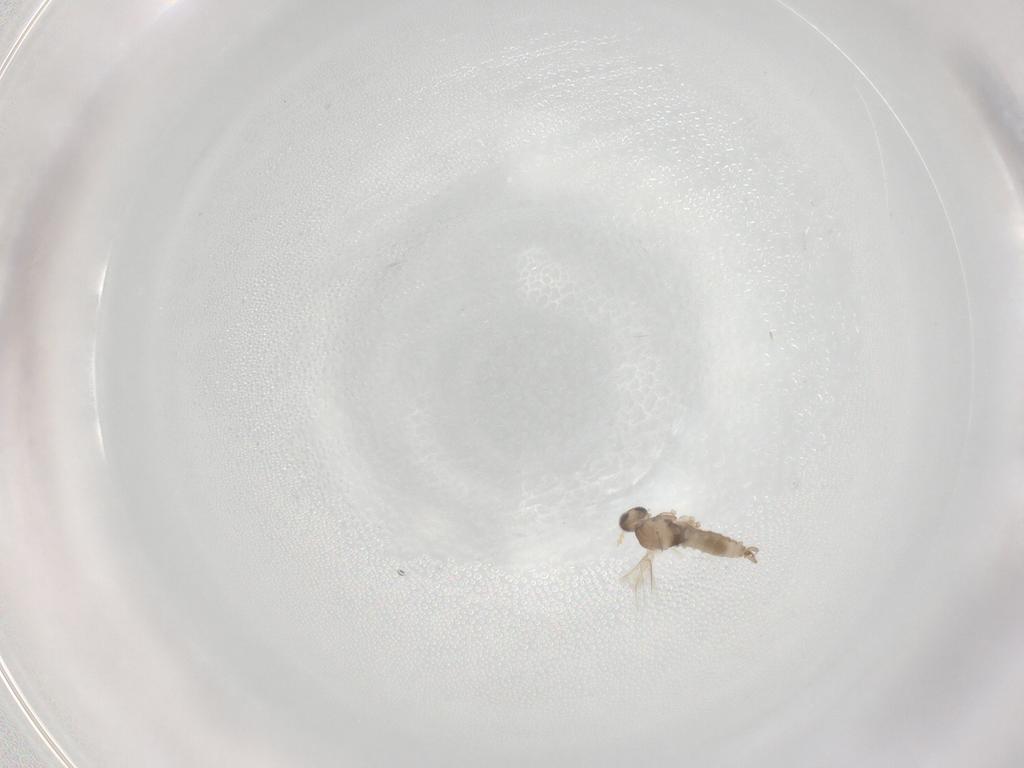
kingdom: Animalia
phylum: Arthropoda
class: Insecta
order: Diptera
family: Cecidomyiidae
